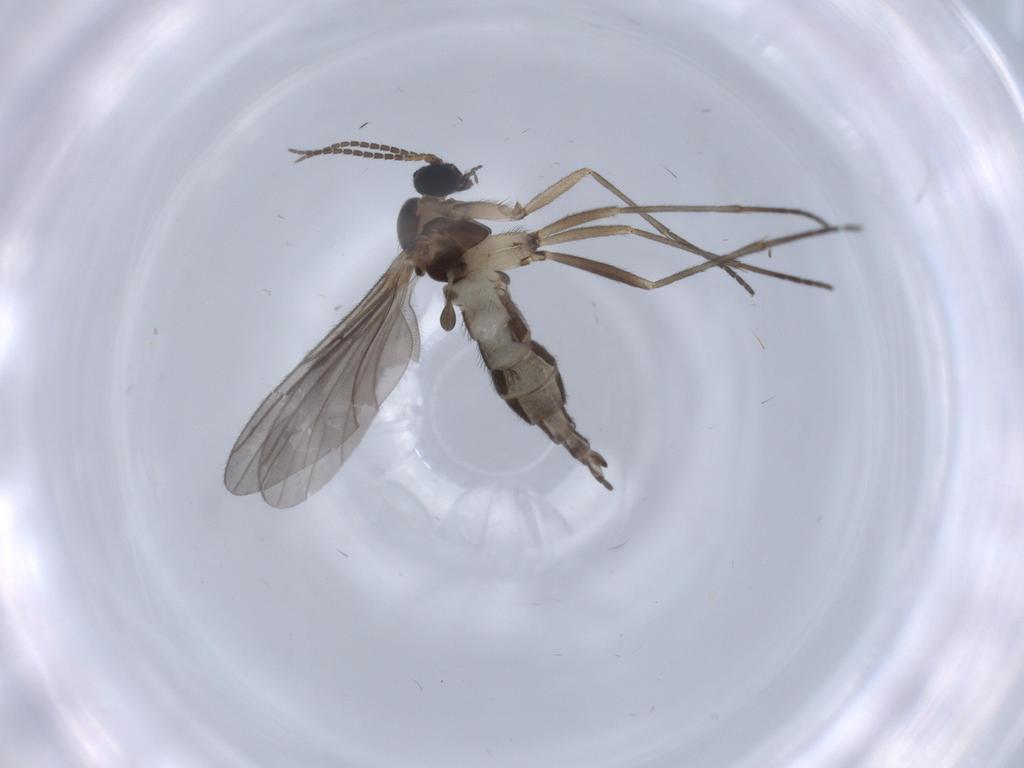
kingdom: Animalia
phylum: Arthropoda
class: Insecta
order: Diptera
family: Sciaridae
